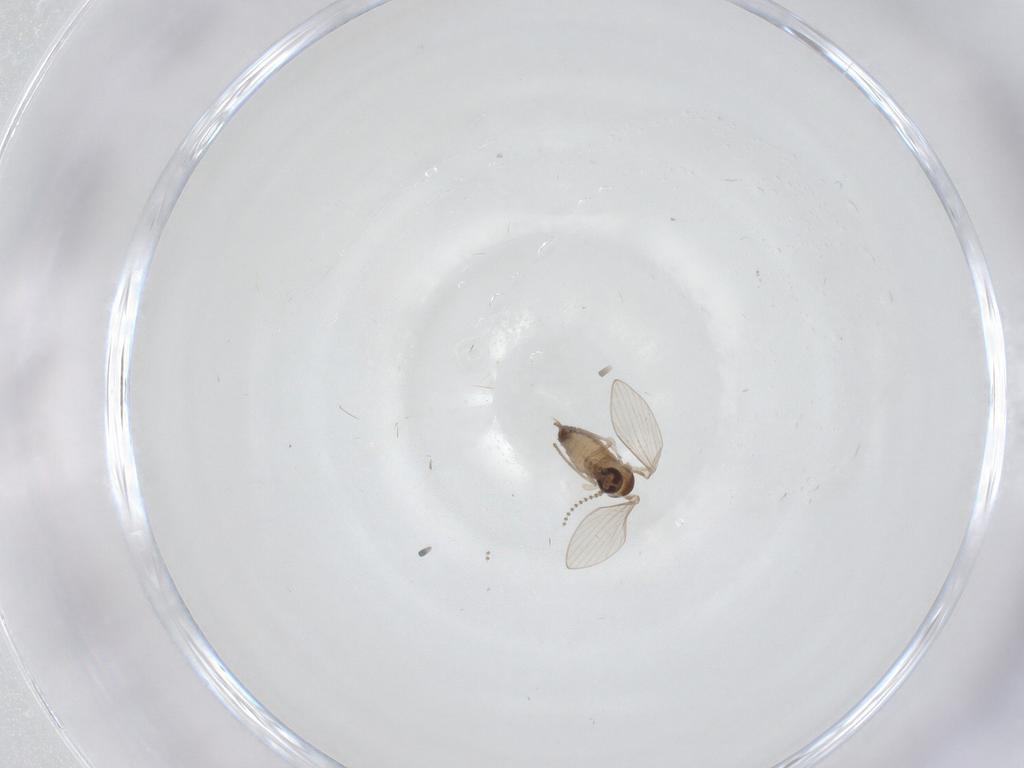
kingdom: Animalia
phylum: Arthropoda
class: Insecta
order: Diptera
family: Psychodidae
